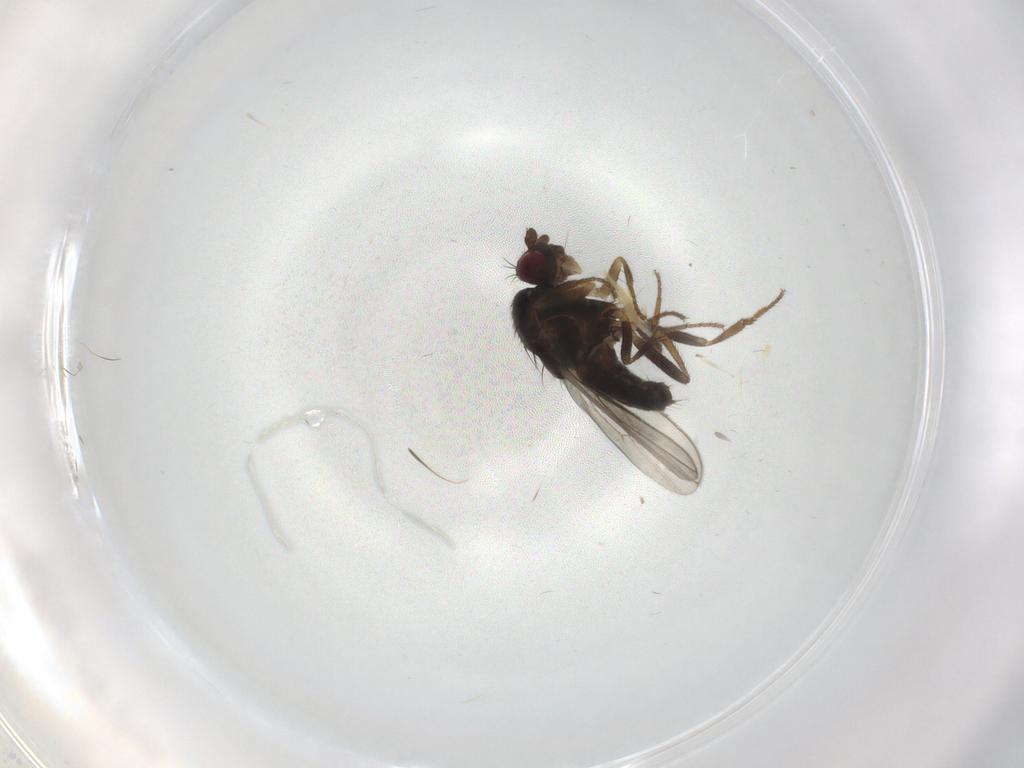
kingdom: Animalia
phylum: Arthropoda
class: Insecta
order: Diptera
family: Sphaeroceridae
